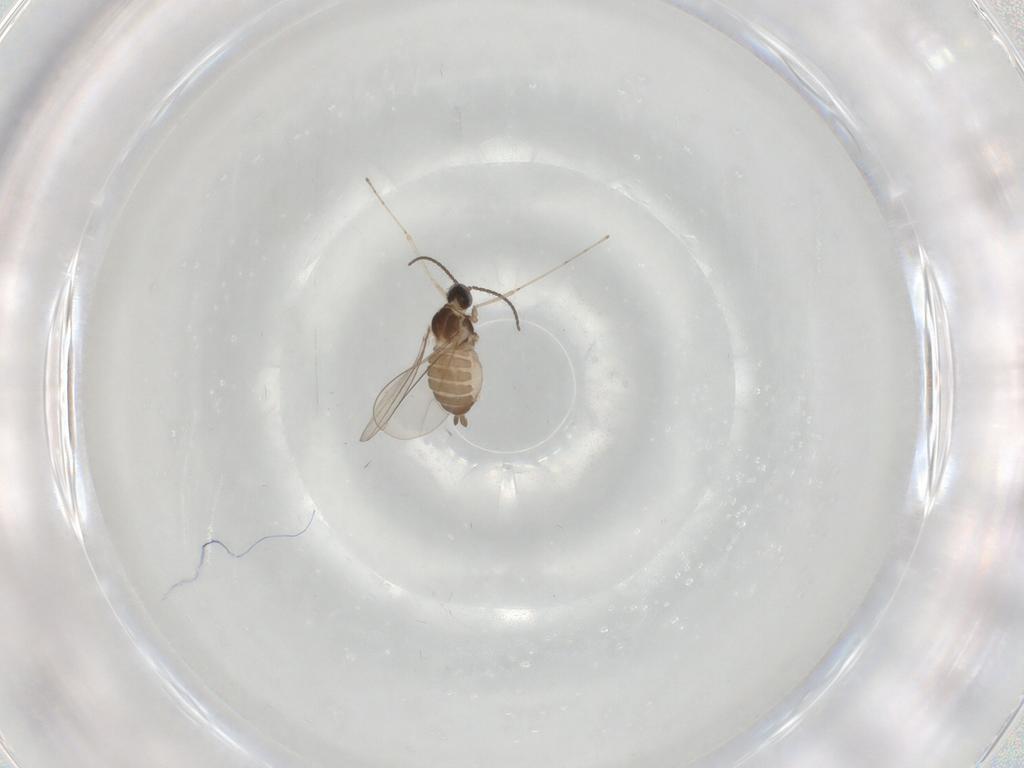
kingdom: Animalia
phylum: Arthropoda
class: Insecta
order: Diptera
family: Cecidomyiidae
